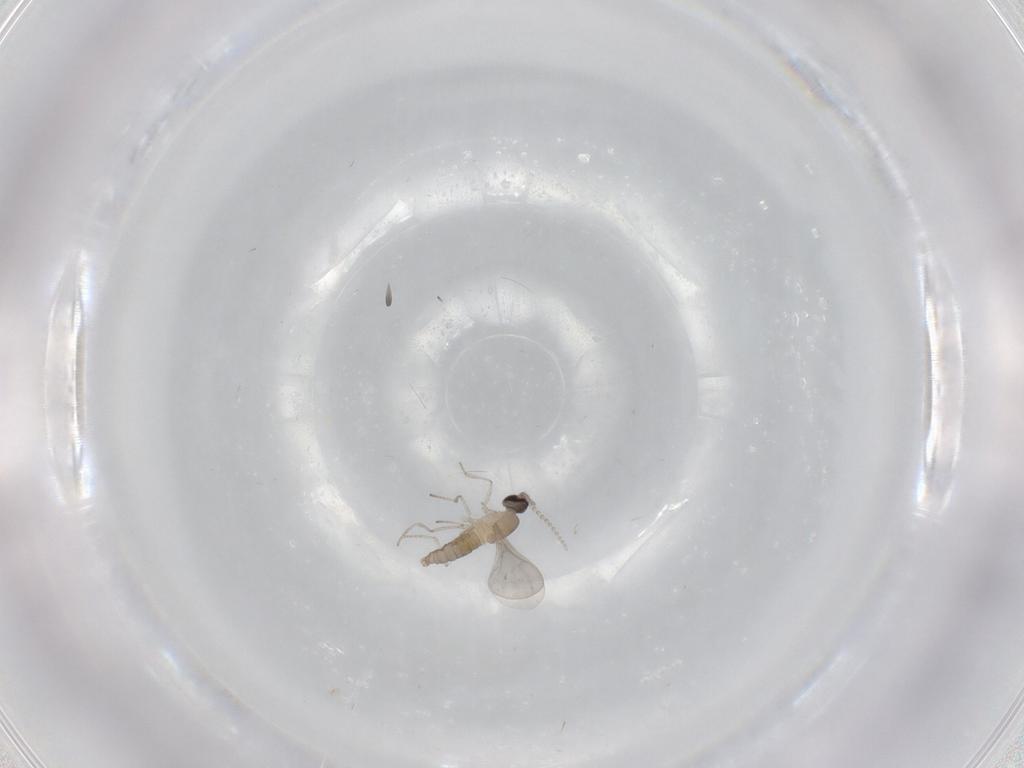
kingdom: Animalia
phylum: Arthropoda
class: Insecta
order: Diptera
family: Cecidomyiidae
